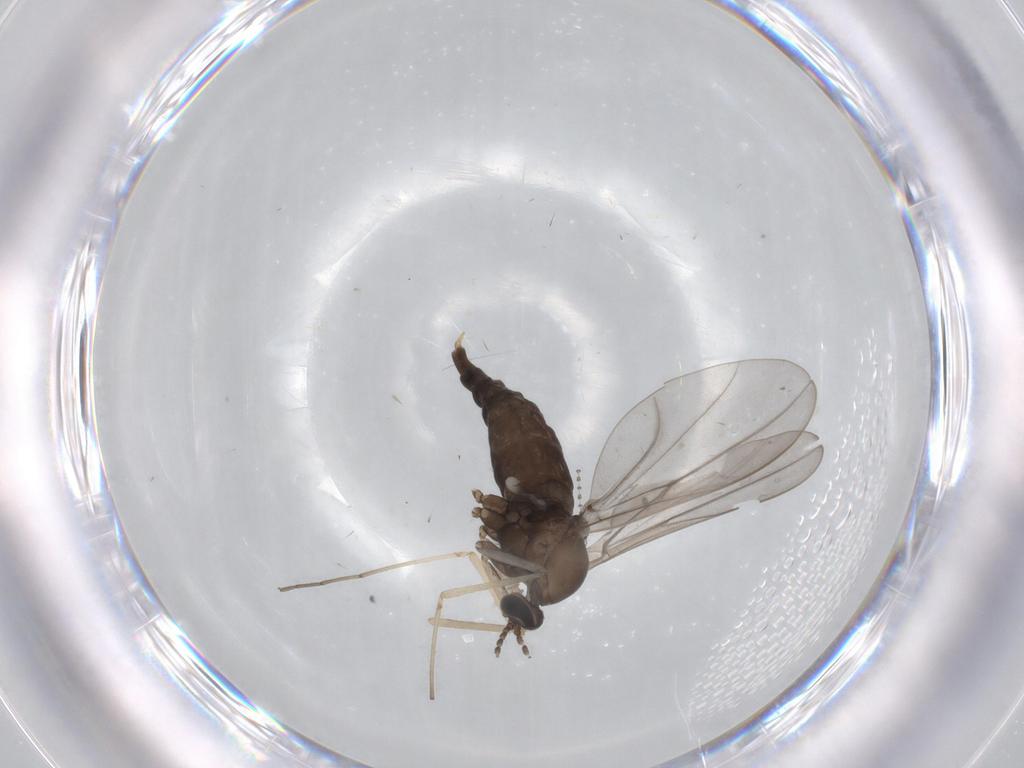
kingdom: Animalia
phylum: Arthropoda
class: Insecta
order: Diptera
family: Cecidomyiidae
